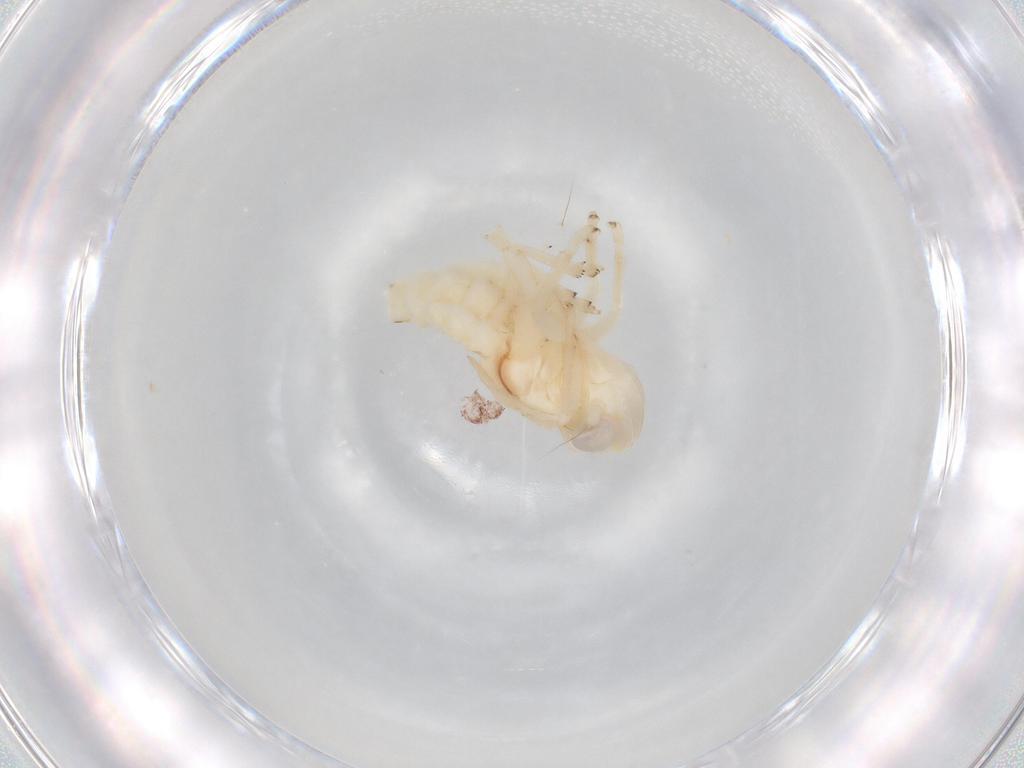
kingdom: Animalia
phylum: Arthropoda
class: Insecta
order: Hemiptera
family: Nogodinidae
